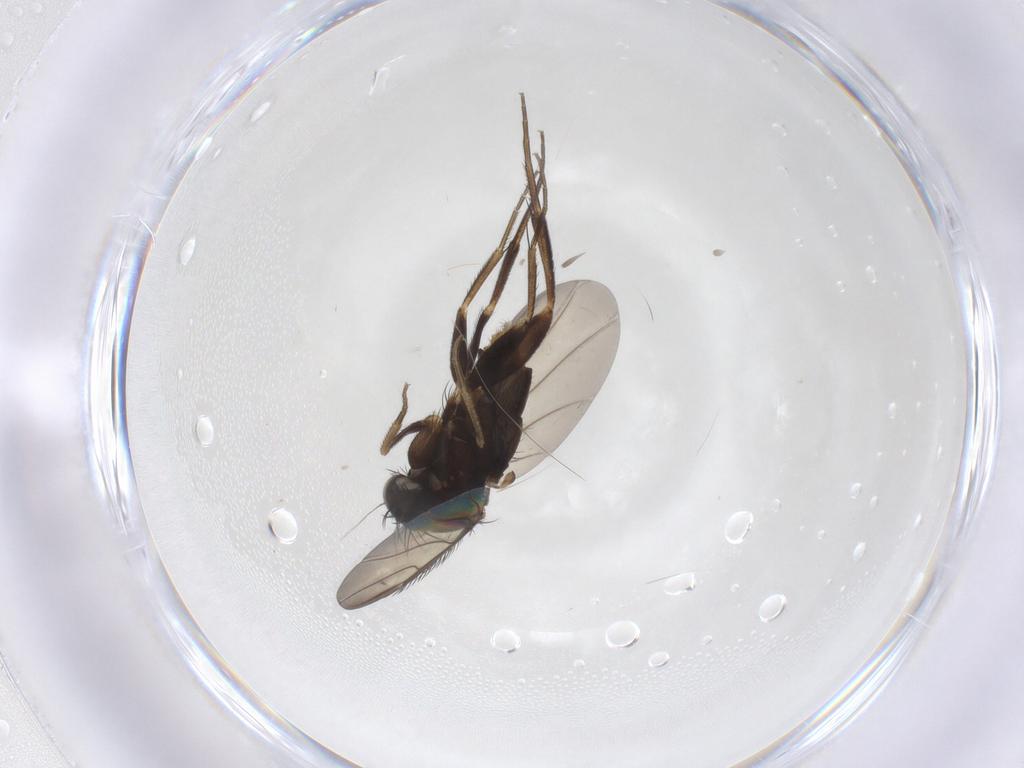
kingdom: Animalia
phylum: Arthropoda
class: Insecta
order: Diptera
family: Phoridae
